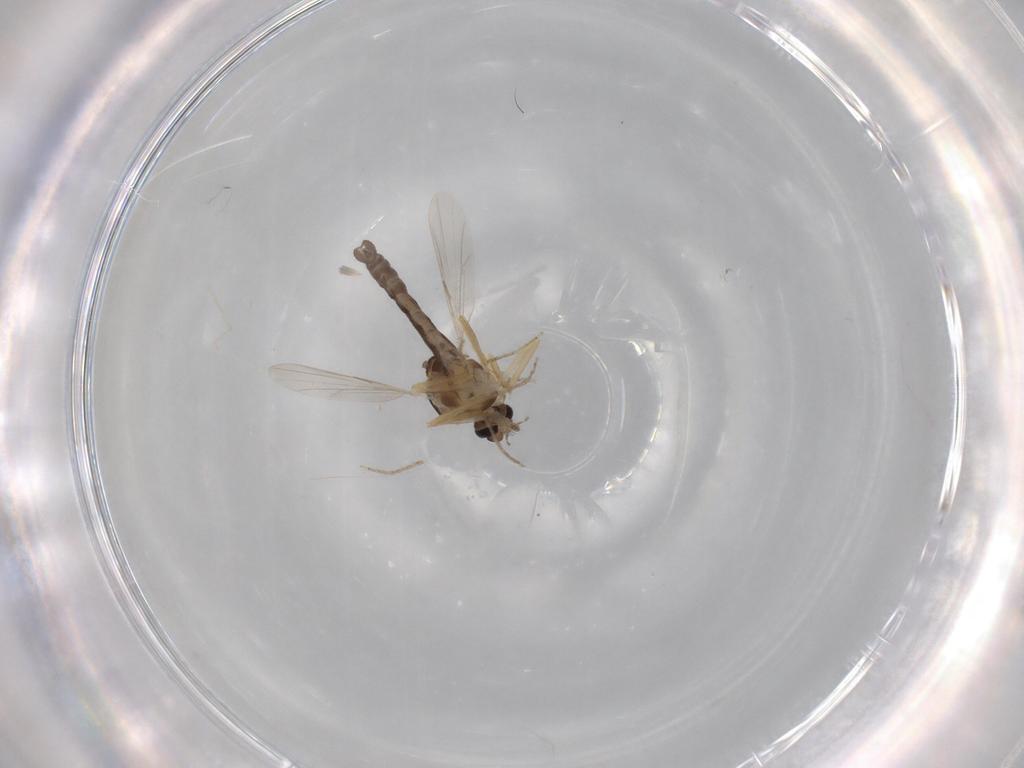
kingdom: Animalia
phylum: Arthropoda
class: Insecta
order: Diptera
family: Ceratopogonidae
